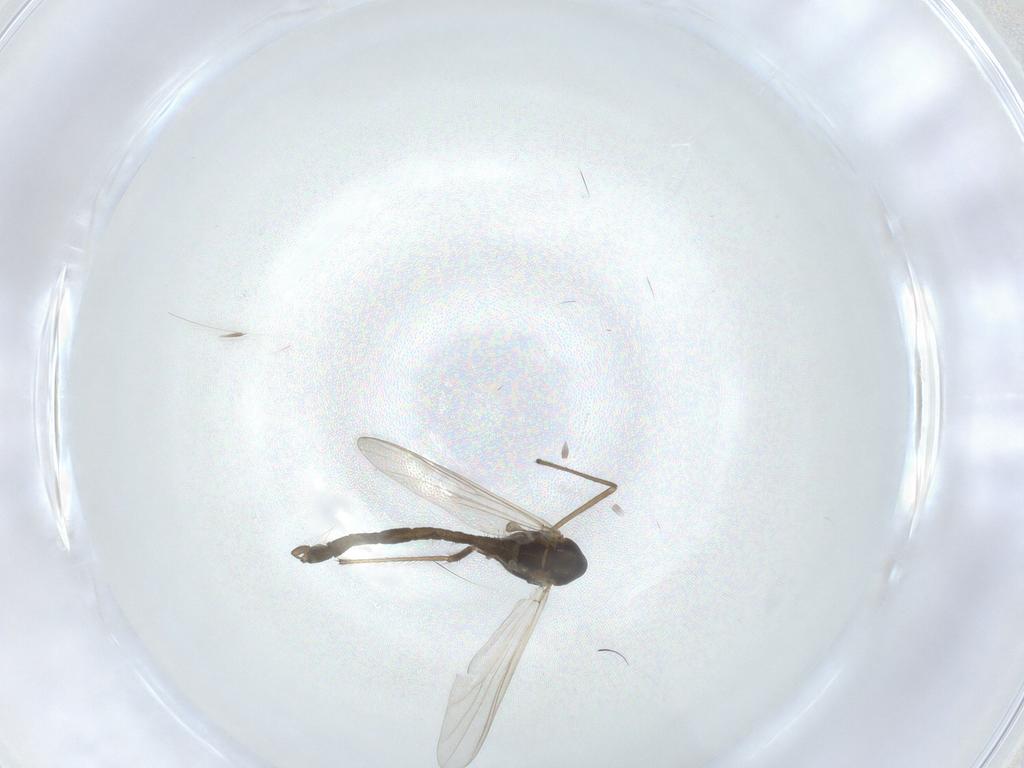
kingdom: Animalia
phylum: Arthropoda
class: Insecta
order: Diptera
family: Chironomidae
